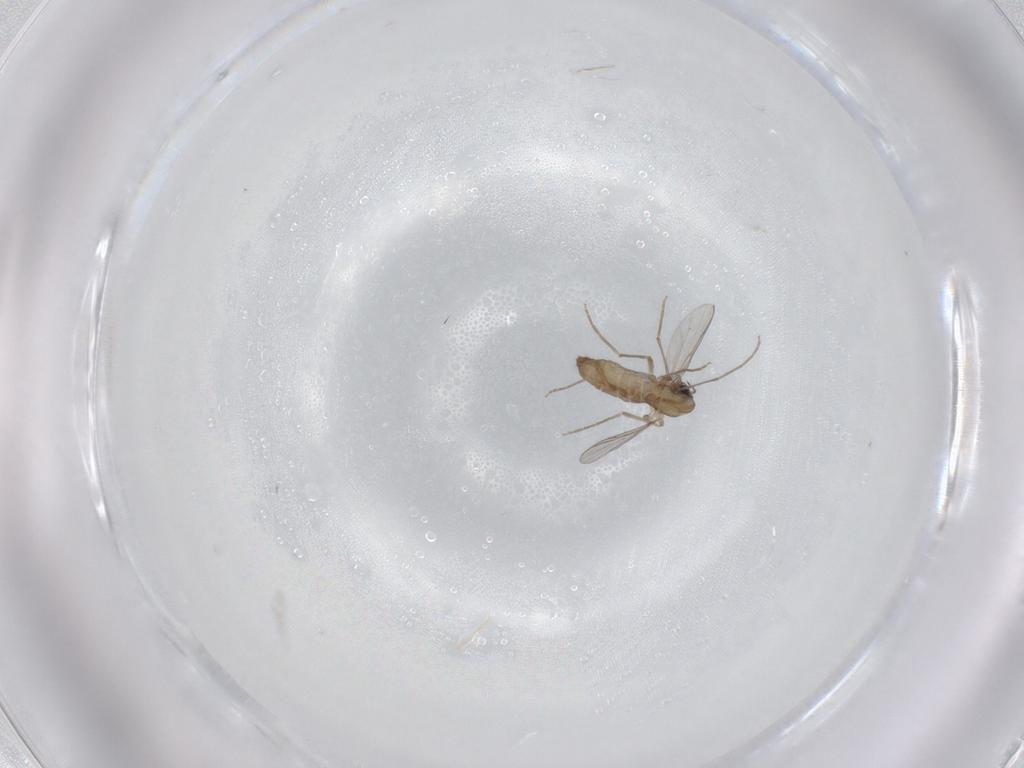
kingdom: Animalia
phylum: Arthropoda
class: Insecta
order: Diptera
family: Chironomidae
